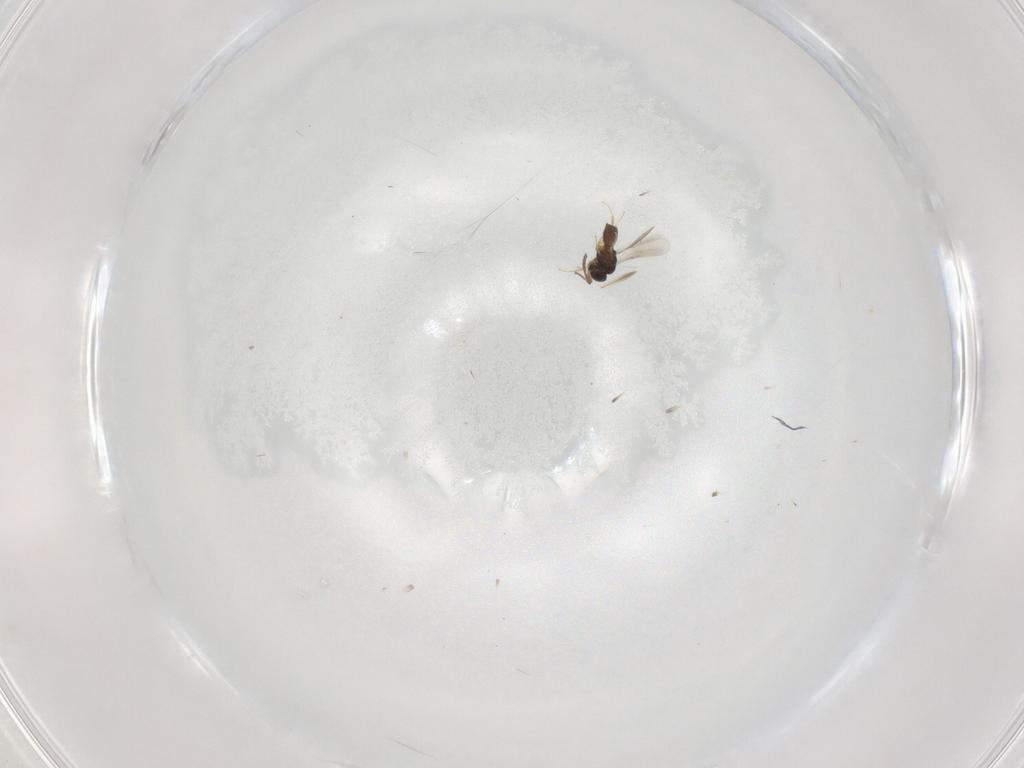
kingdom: Animalia
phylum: Arthropoda
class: Insecta
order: Hymenoptera
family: Scelionidae
